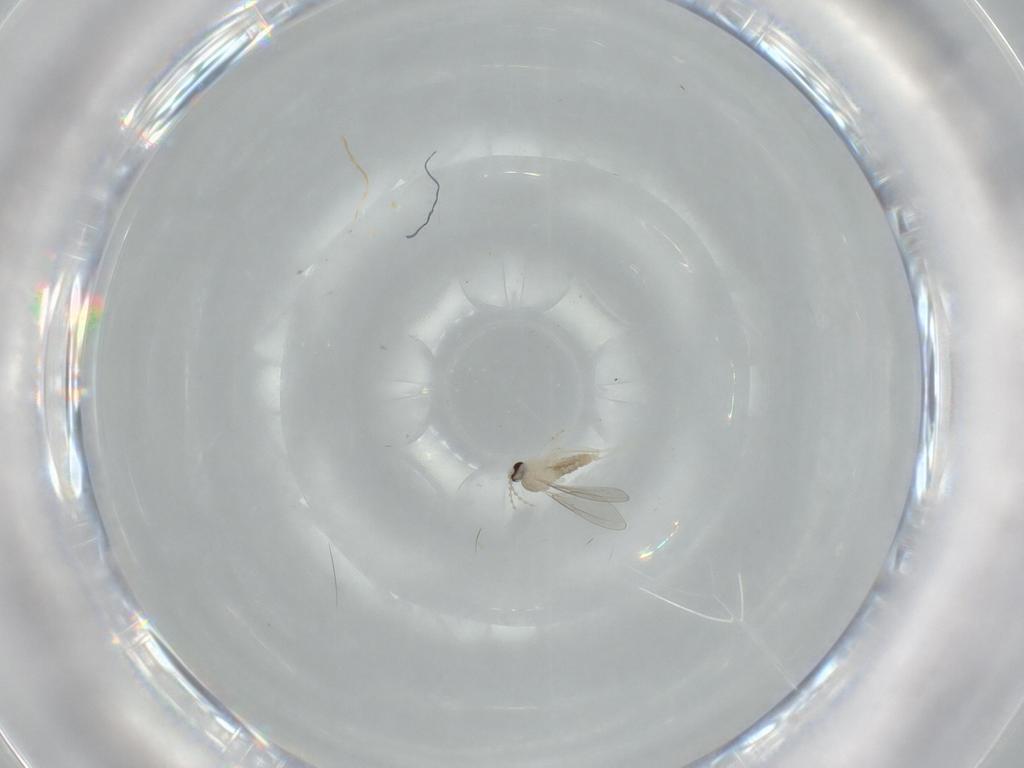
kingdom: Animalia
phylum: Arthropoda
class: Insecta
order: Diptera
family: Cecidomyiidae
